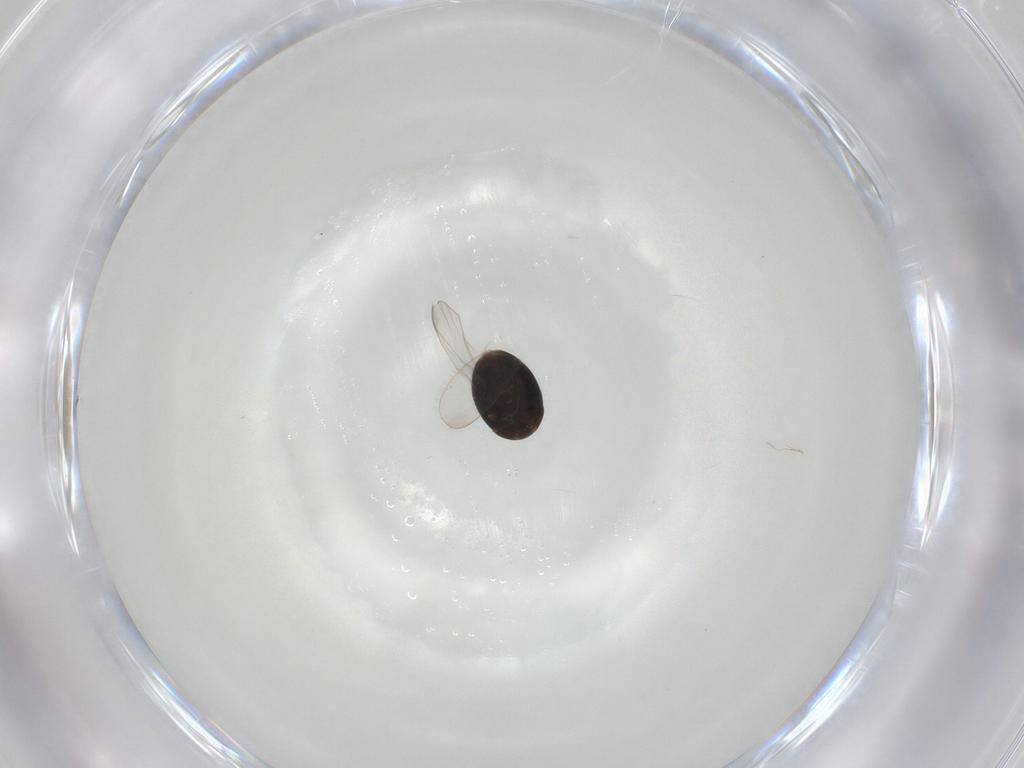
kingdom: Animalia
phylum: Arthropoda
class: Insecta
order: Coleoptera
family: Corylophidae
